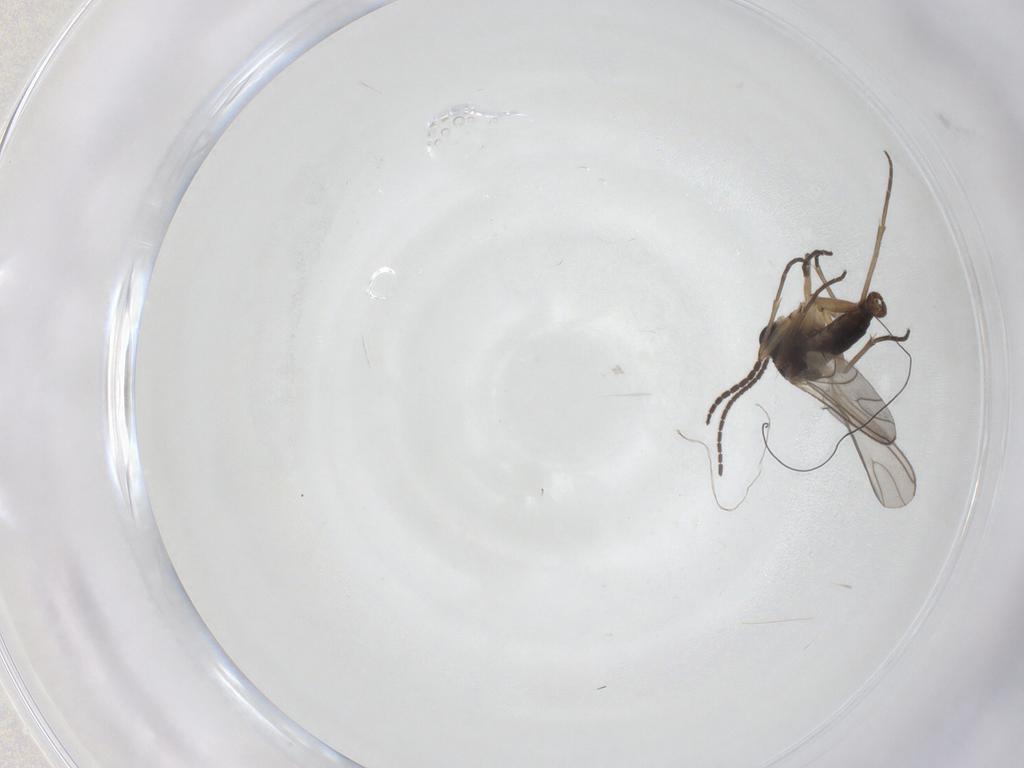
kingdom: Animalia
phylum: Arthropoda
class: Insecta
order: Diptera
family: Sciaridae
